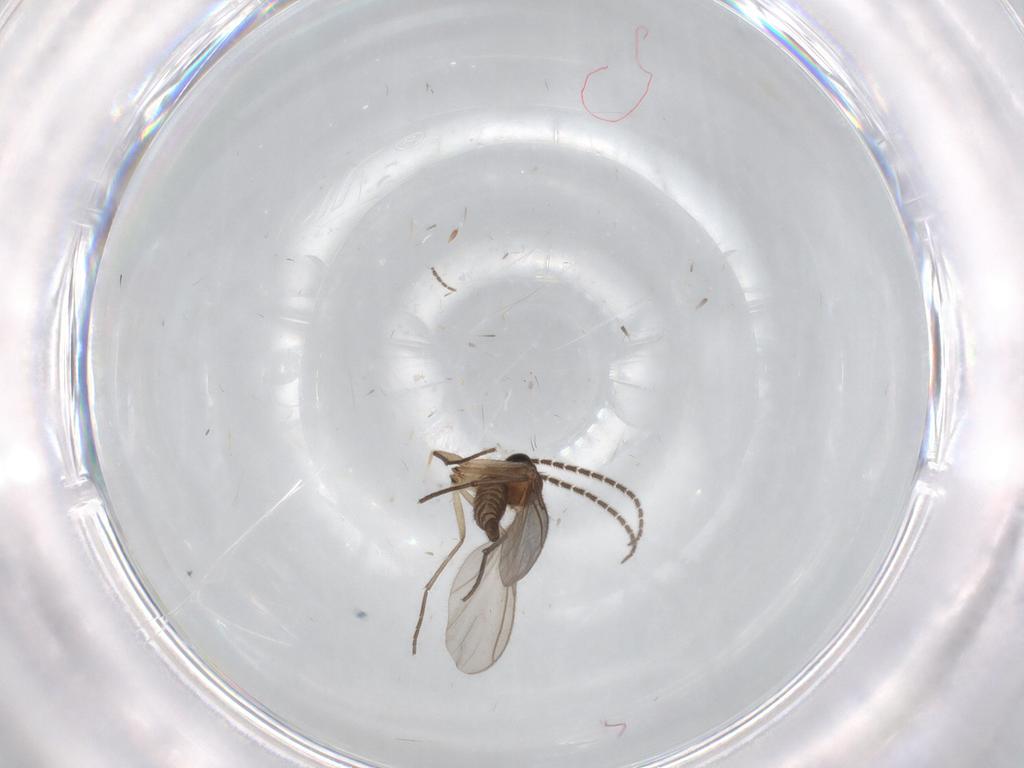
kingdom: Animalia
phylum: Arthropoda
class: Insecta
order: Diptera
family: Sciaridae
